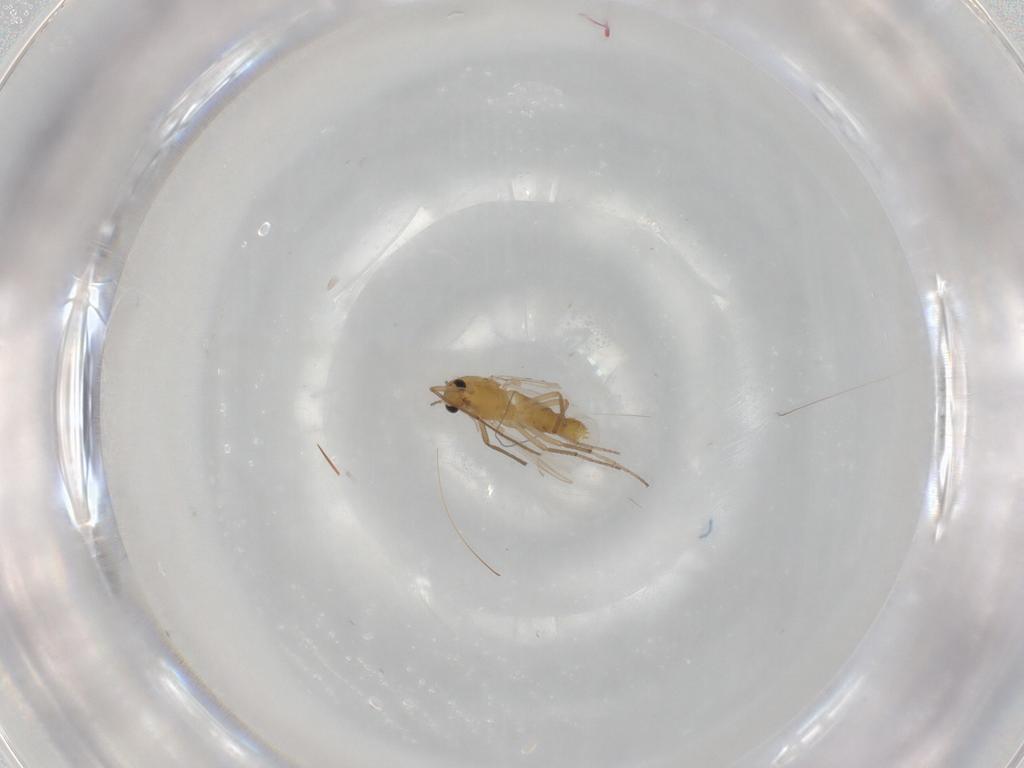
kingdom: Animalia
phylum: Arthropoda
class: Insecta
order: Diptera
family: Chironomidae
